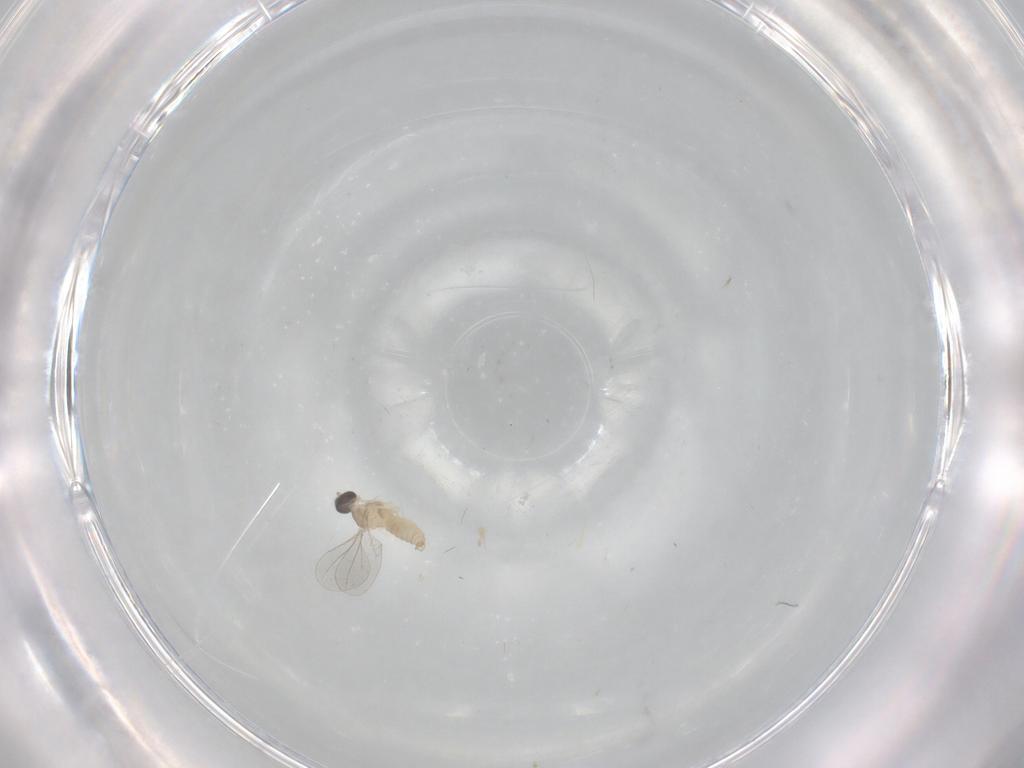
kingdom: Animalia
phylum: Arthropoda
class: Insecta
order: Diptera
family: Cecidomyiidae
